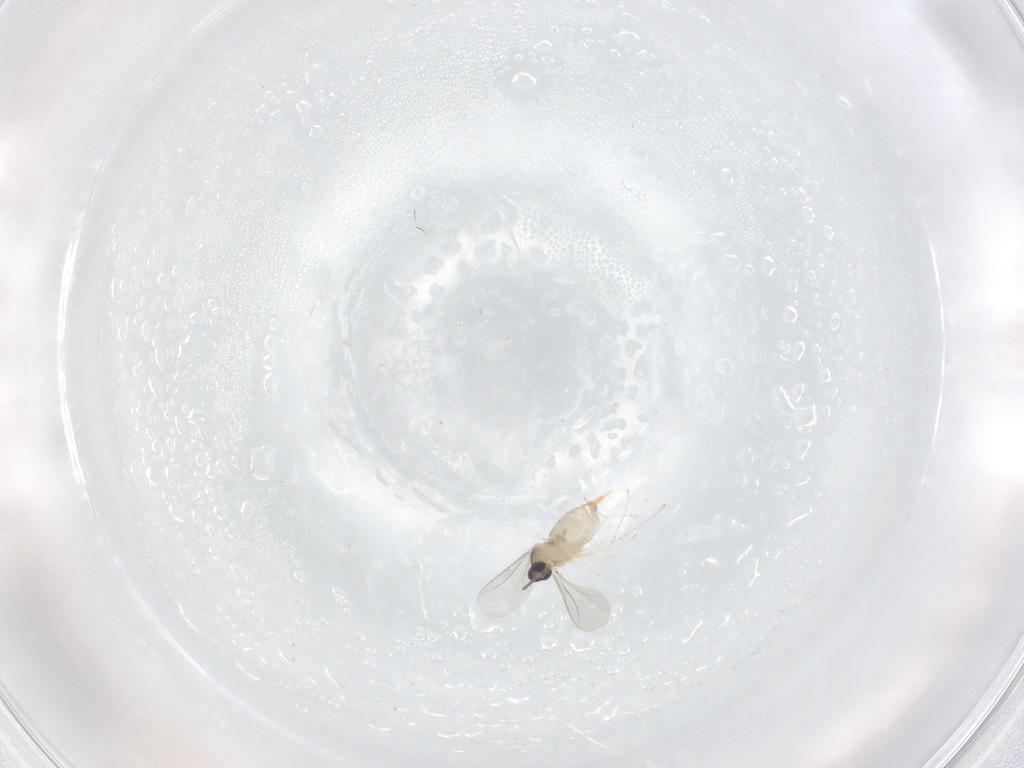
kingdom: Animalia
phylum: Arthropoda
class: Insecta
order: Diptera
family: Cecidomyiidae
